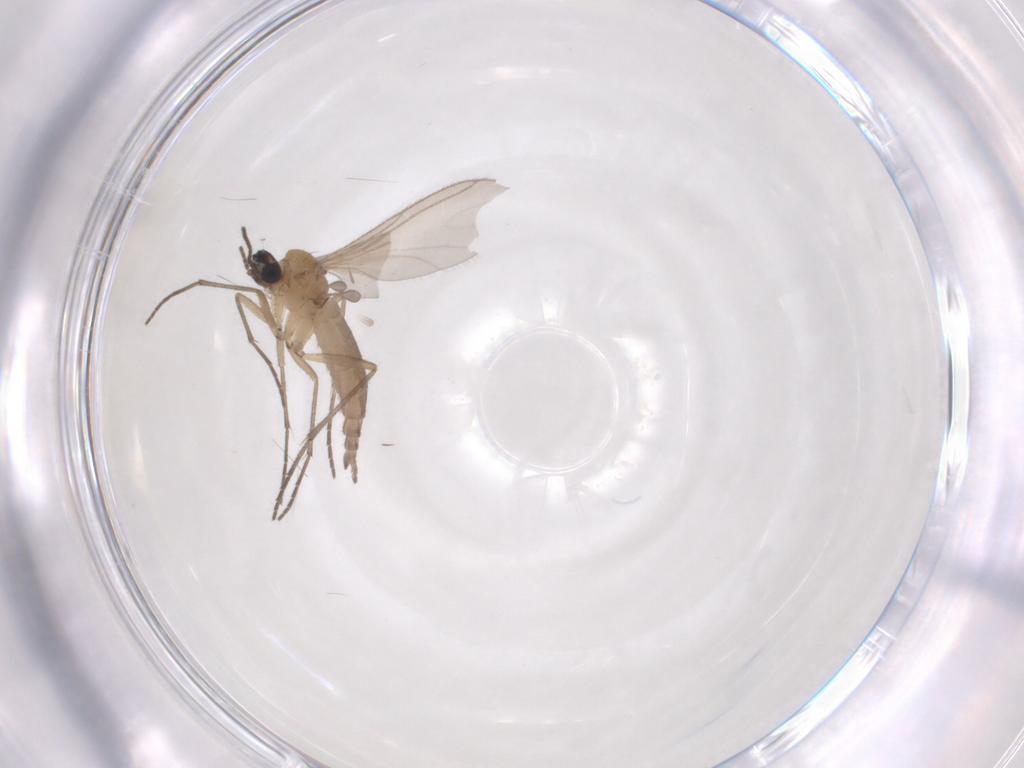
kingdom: Animalia
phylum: Arthropoda
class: Insecta
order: Diptera
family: Sciaridae
